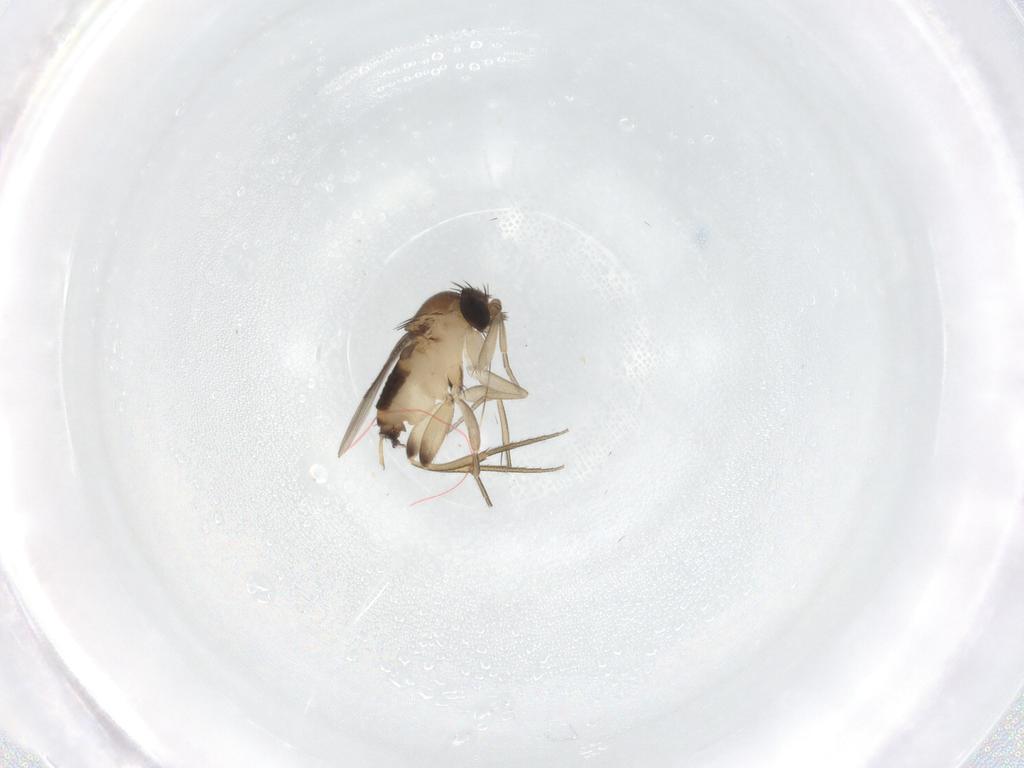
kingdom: Animalia
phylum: Arthropoda
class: Insecta
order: Diptera
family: Phoridae
